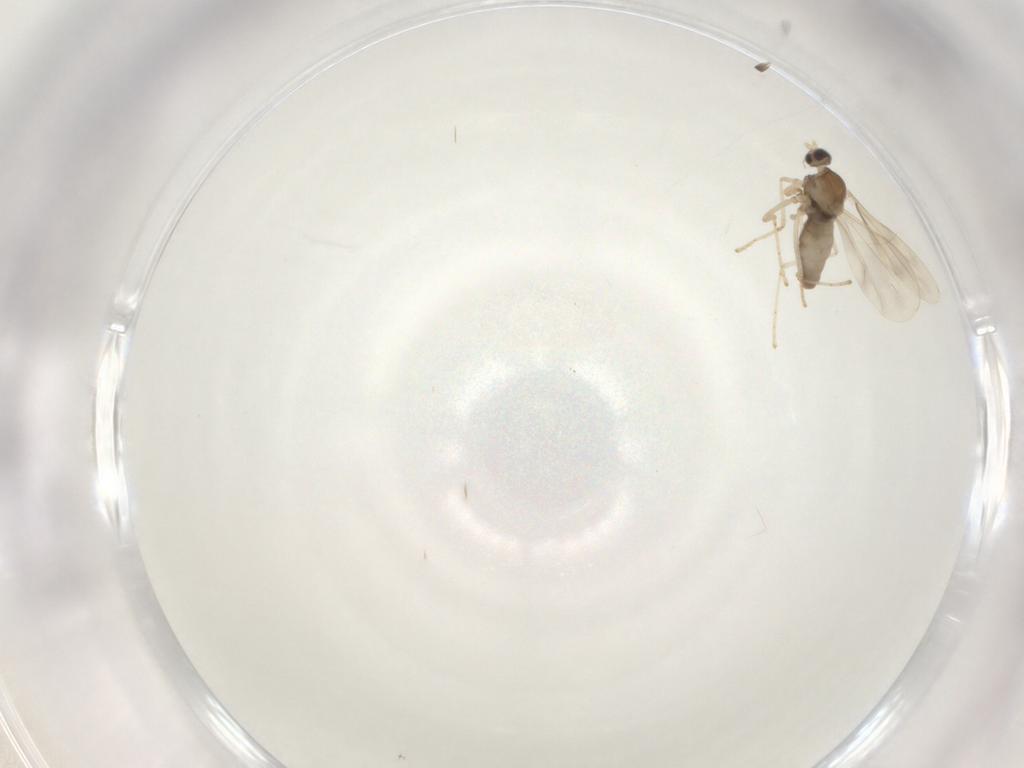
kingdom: Animalia
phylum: Arthropoda
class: Insecta
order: Diptera
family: Cecidomyiidae
